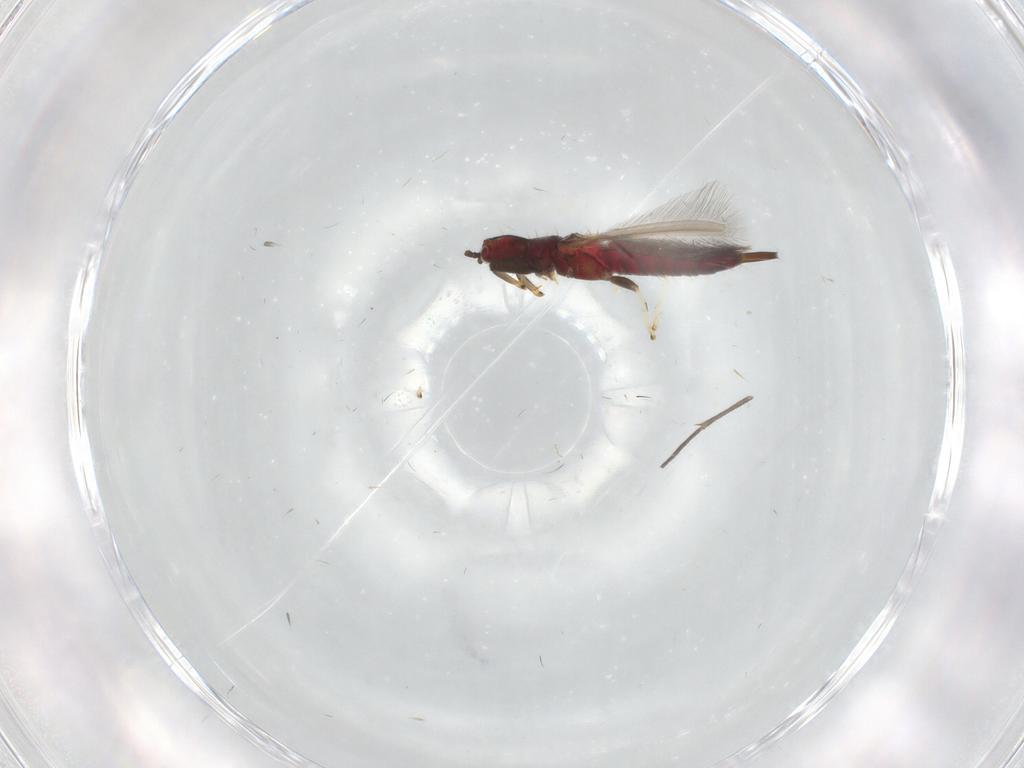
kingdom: Animalia
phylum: Arthropoda
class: Insecta
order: Thysanoptera
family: Phlaeothripidae
